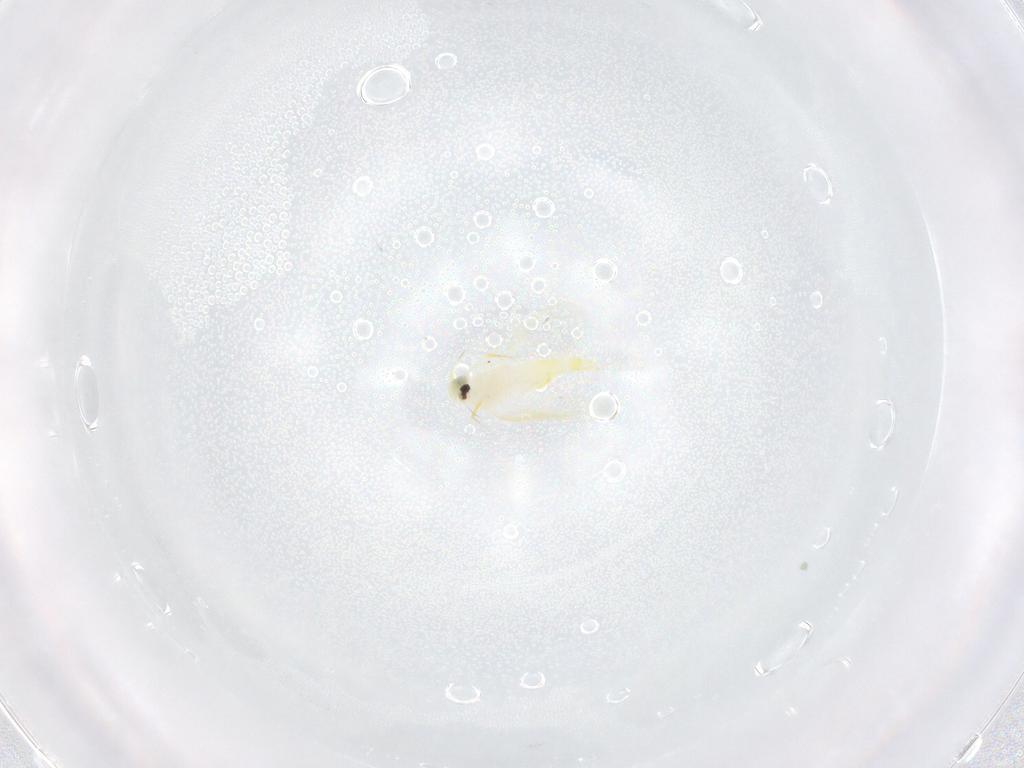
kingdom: Animalia
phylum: Arthropoda
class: Insecta
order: Hemiptera
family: Aleyrodidae
